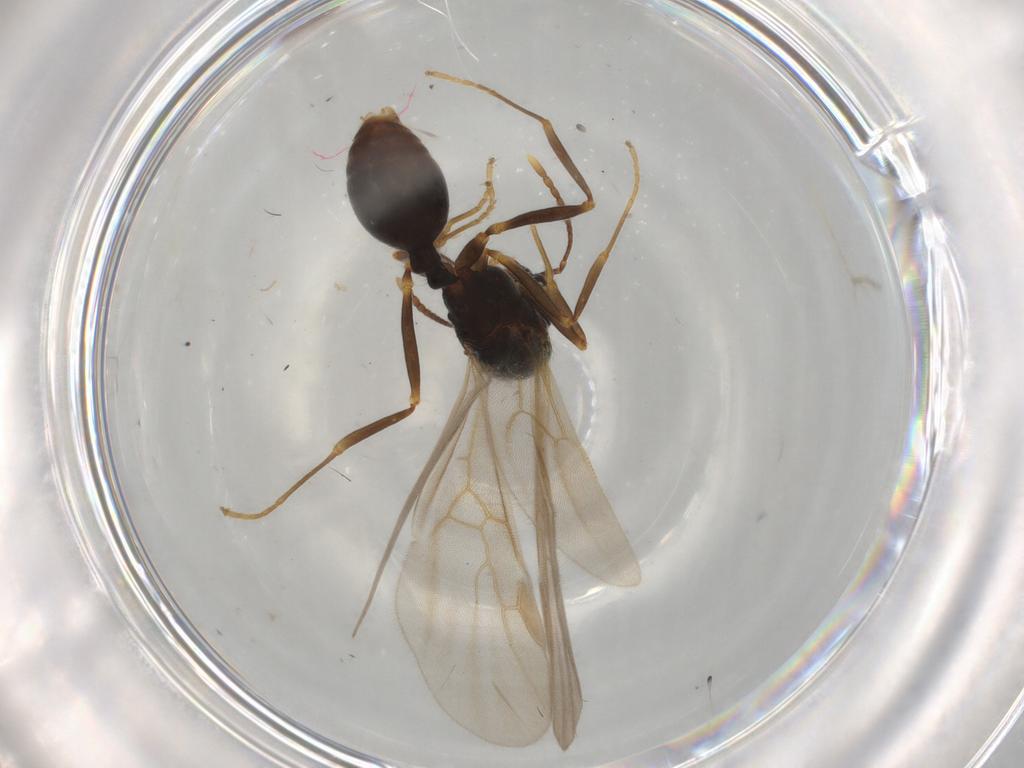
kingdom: Animalia
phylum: Arthropoda
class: Insecta
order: Hymenoptera
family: Formicidae
